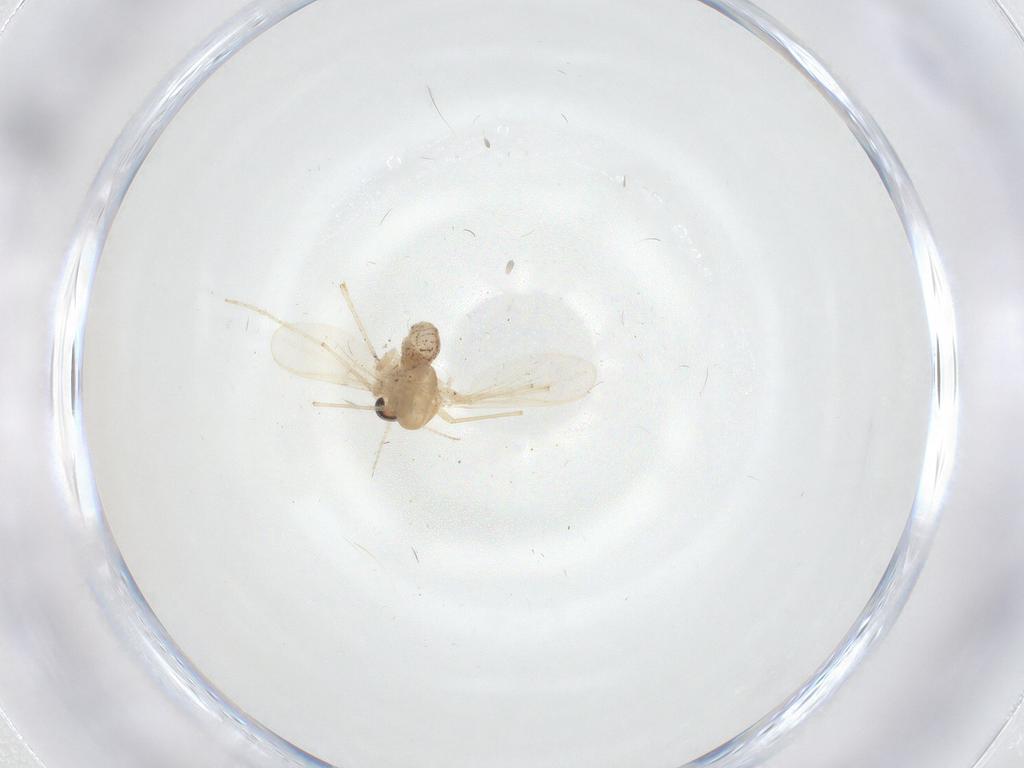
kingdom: Animalia
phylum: Arthropoda
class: Insecta
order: Diptera
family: Dolichopodidae
